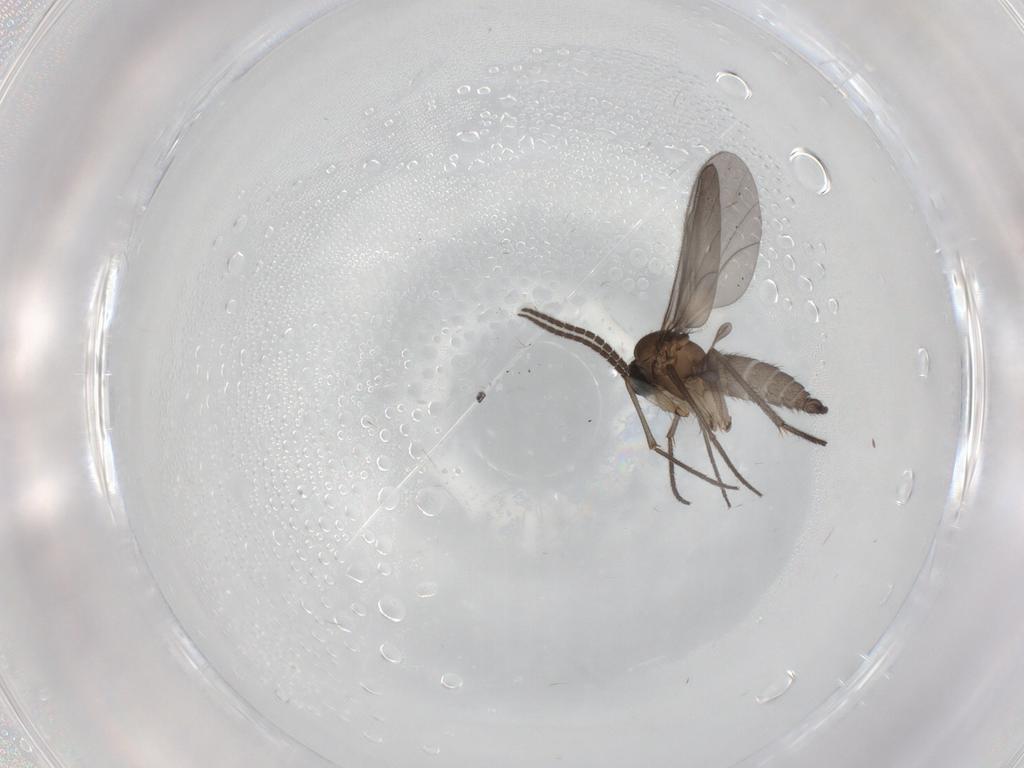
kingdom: Animalia
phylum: Arthropoda
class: Insecta
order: Diptera
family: Sciaridae
